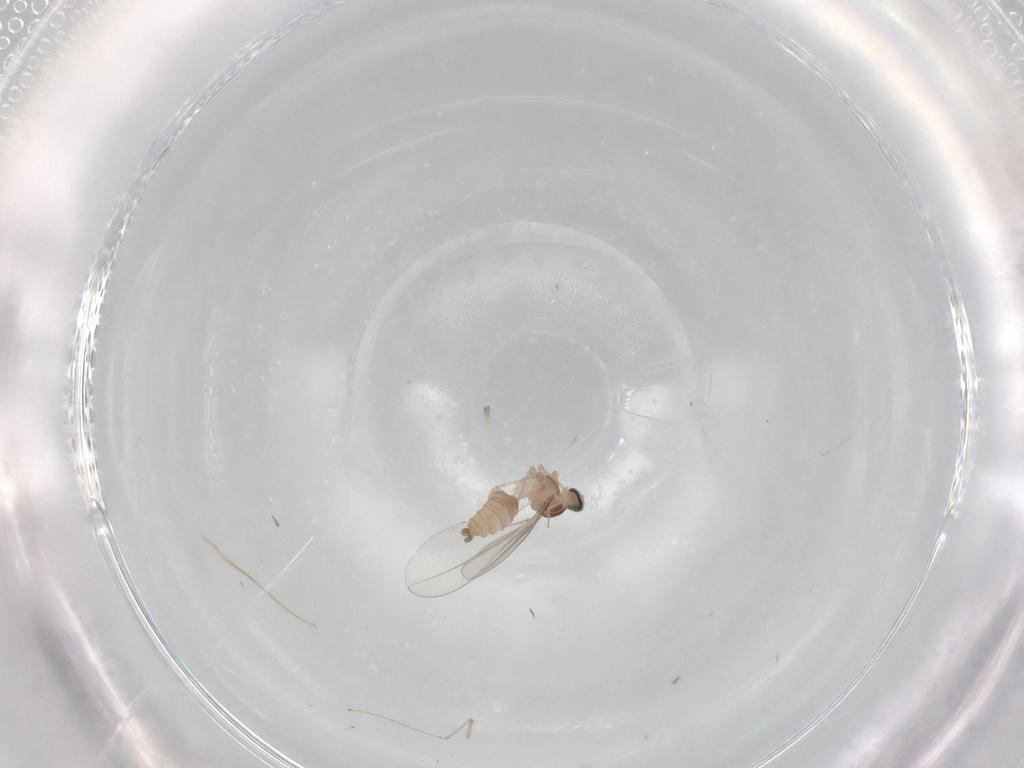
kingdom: Animalia
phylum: Arthropoda
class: Insecta
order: Diptera
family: Cecidomyiidae
